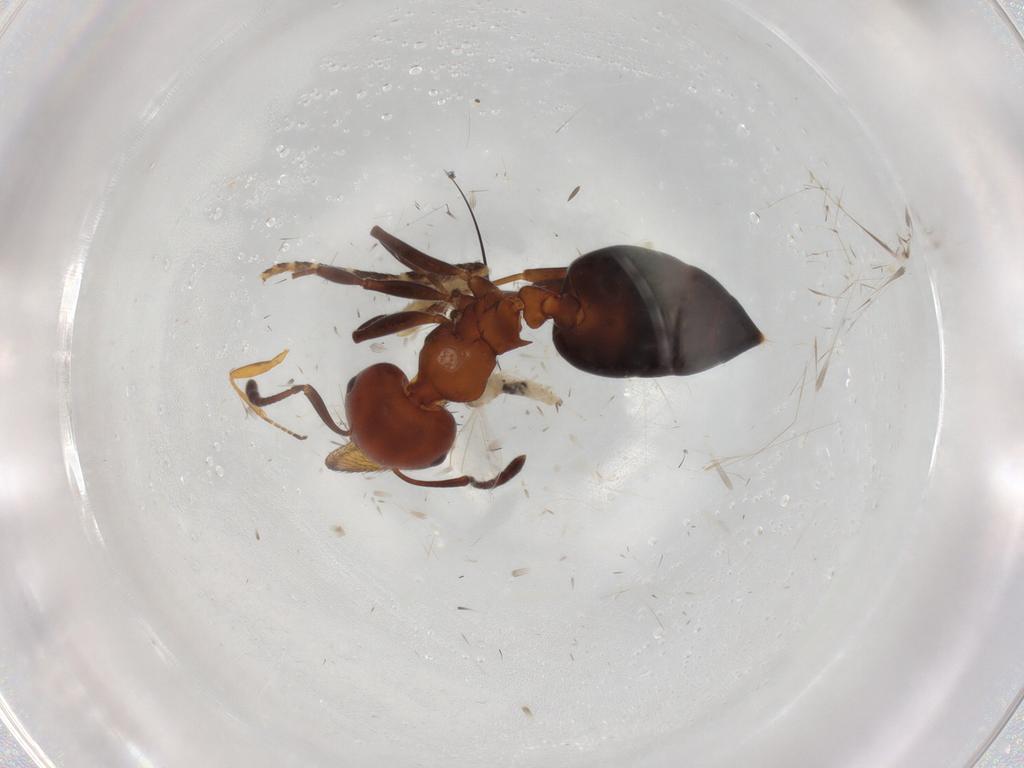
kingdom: Animalia
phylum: Arthropoda
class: Insecta
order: Hymenoptera
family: Formicidae
